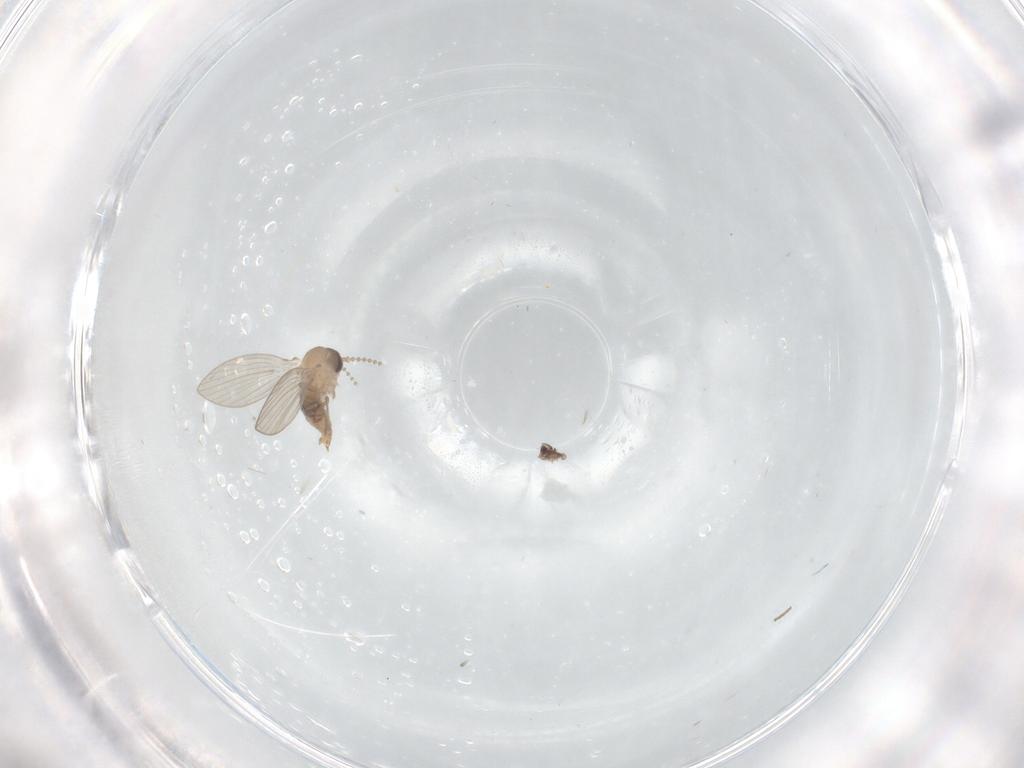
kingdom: Animalia
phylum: Arthropoda
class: Insecta
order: Diptera
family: Psychodidae
